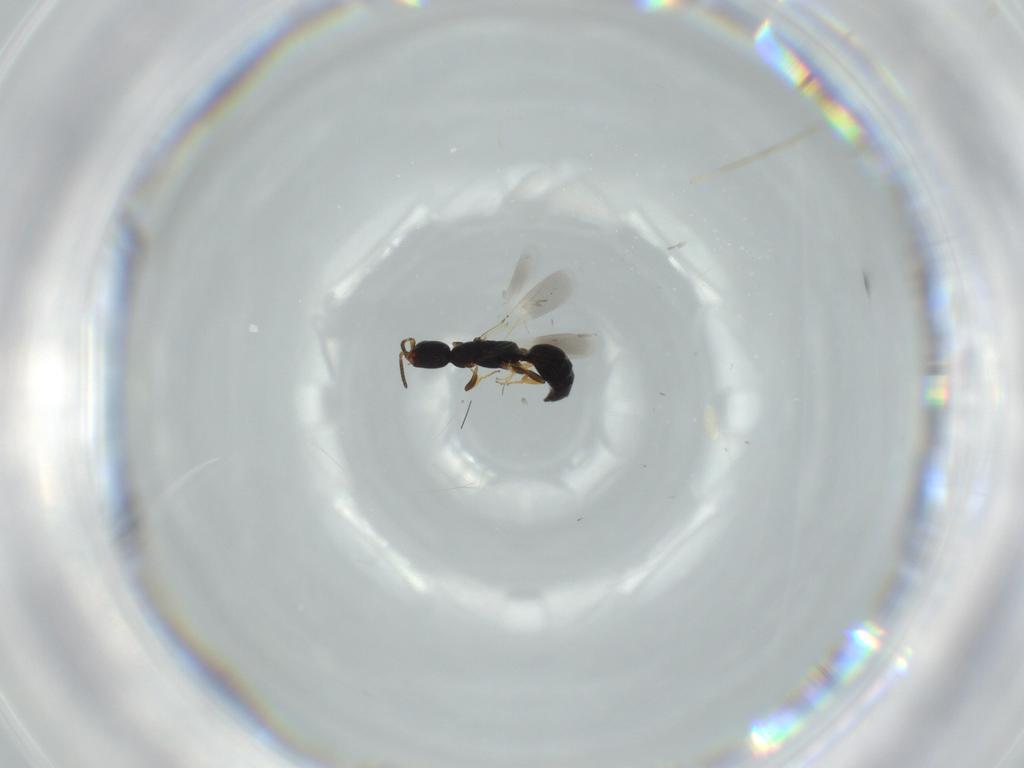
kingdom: Animalia
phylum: Arthropoda
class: Insecta
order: Hymenoptera
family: Bethylidae
